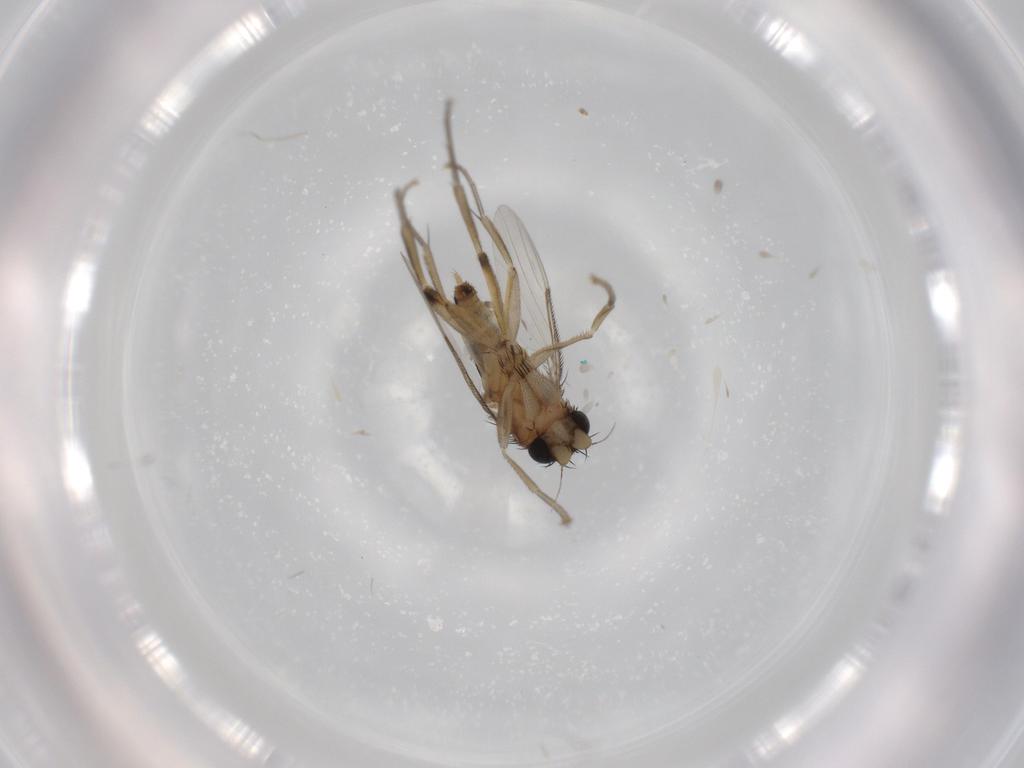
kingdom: Animalia
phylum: Arthropoda
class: Insecta
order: Diptera
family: Phoridae
